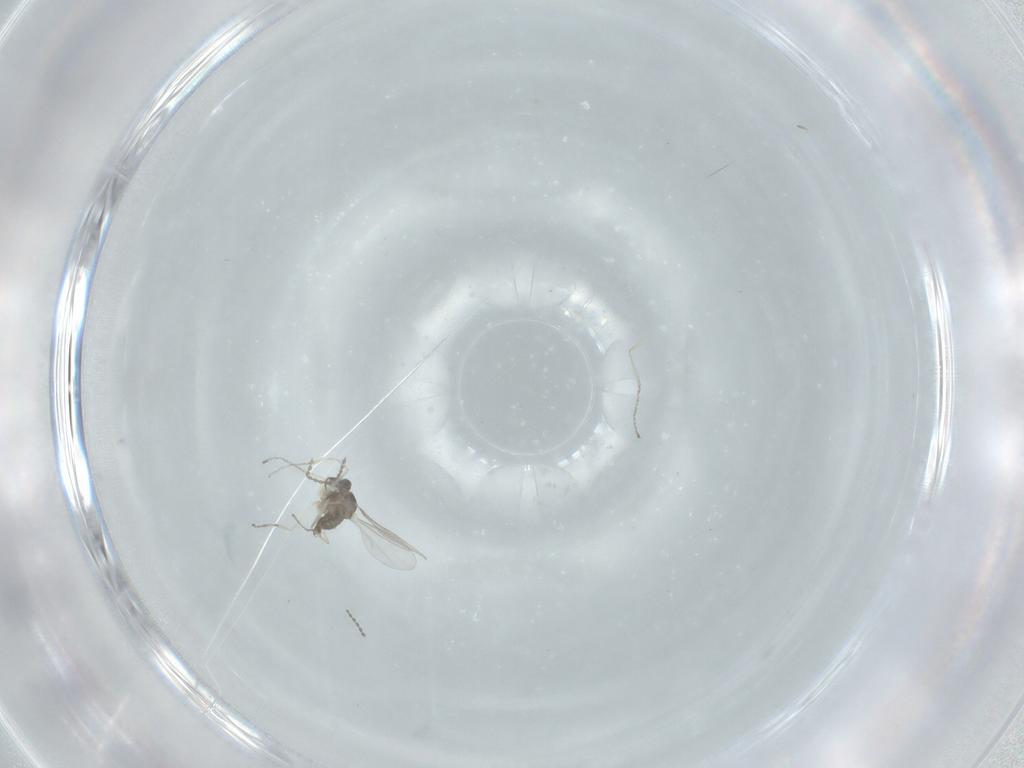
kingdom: Animalia
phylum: Arthropoda
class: Insecta
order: Diptera
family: Cecidomyiidae
